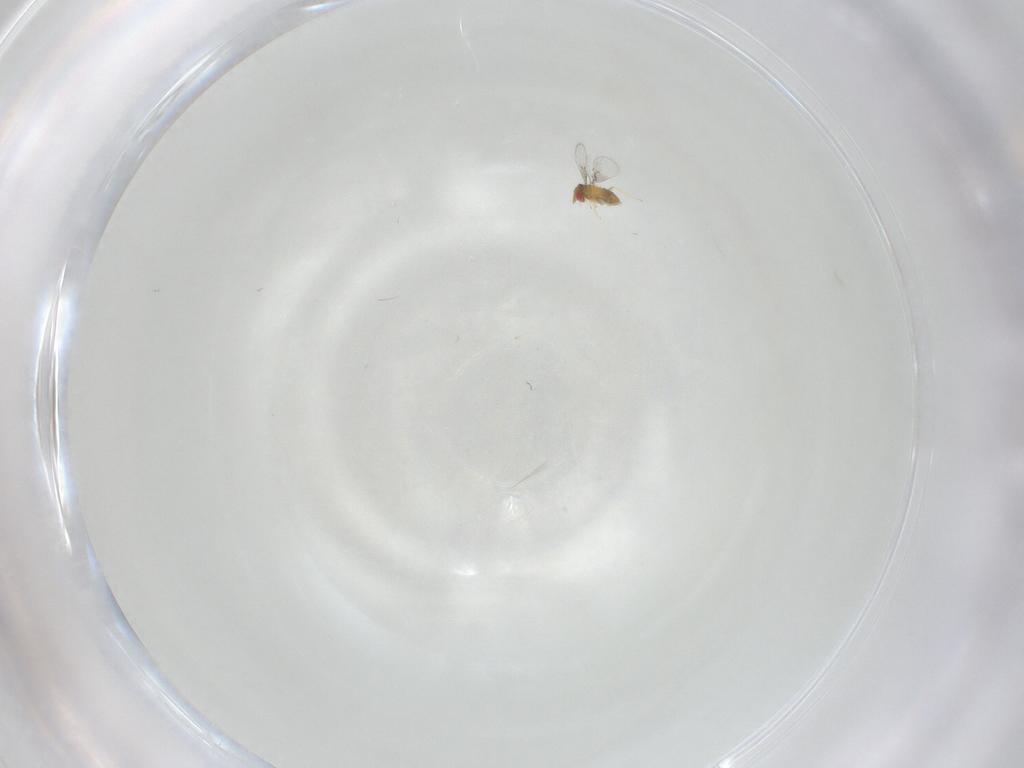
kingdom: Animalia
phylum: Arthropoda
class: Insecta
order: Hymenoptera
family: Trichogrammatidae
